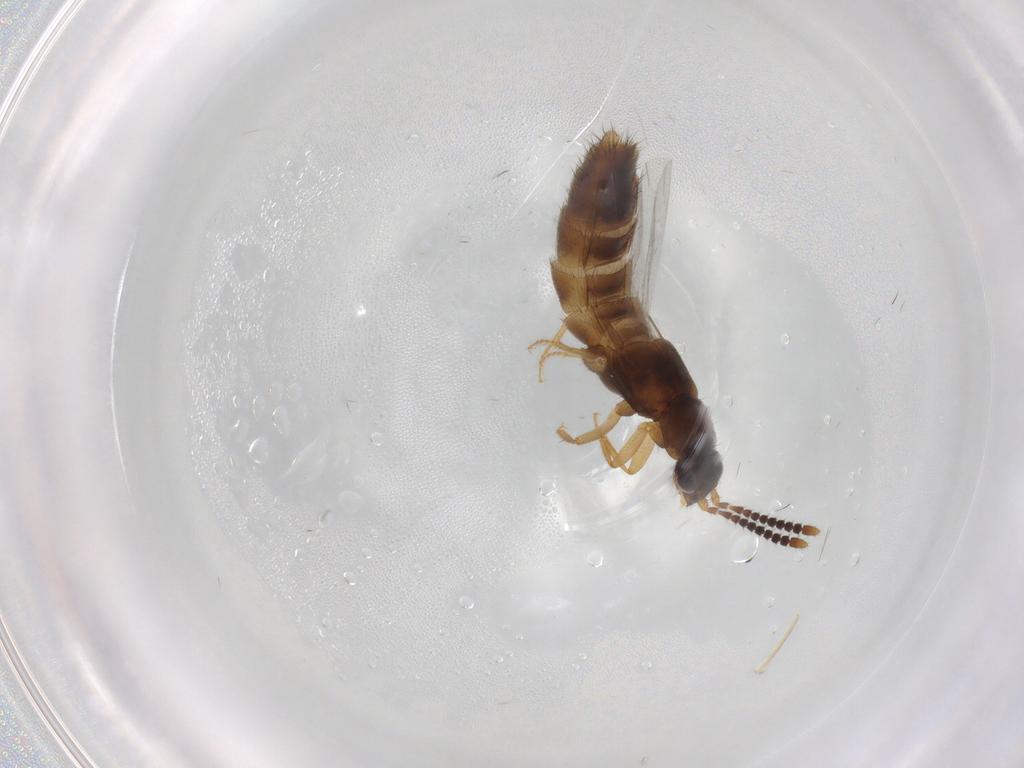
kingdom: Animalia
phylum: Arthropoda
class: Insecta
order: Coleoptera
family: Staphylinidae
